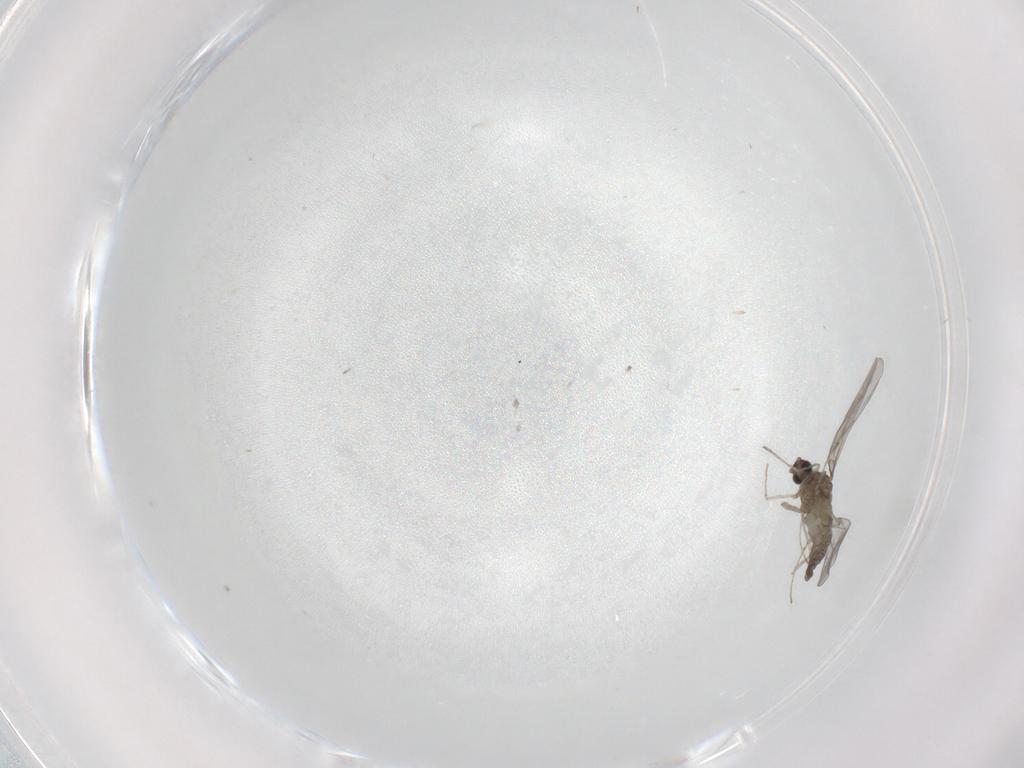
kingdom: Animalia
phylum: Arthropoda
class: Insecta
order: Diptera
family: Cecidomyiidae
